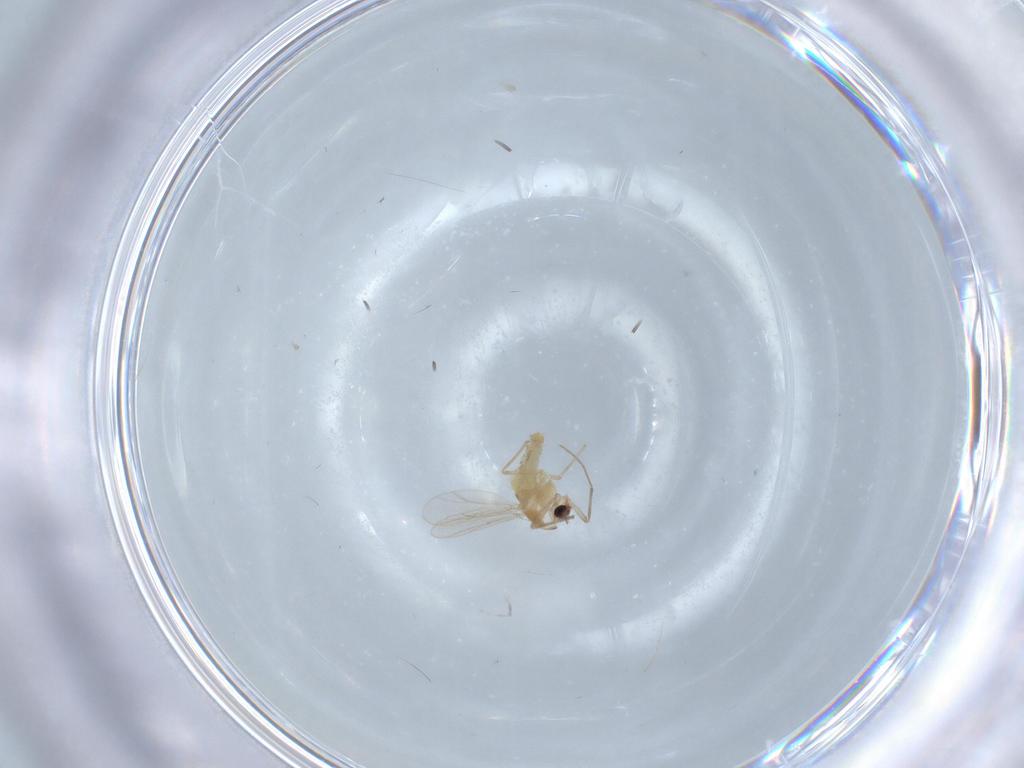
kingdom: Animalia
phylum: Arthropoda
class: Insecta
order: Diptera
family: Chironomidae
